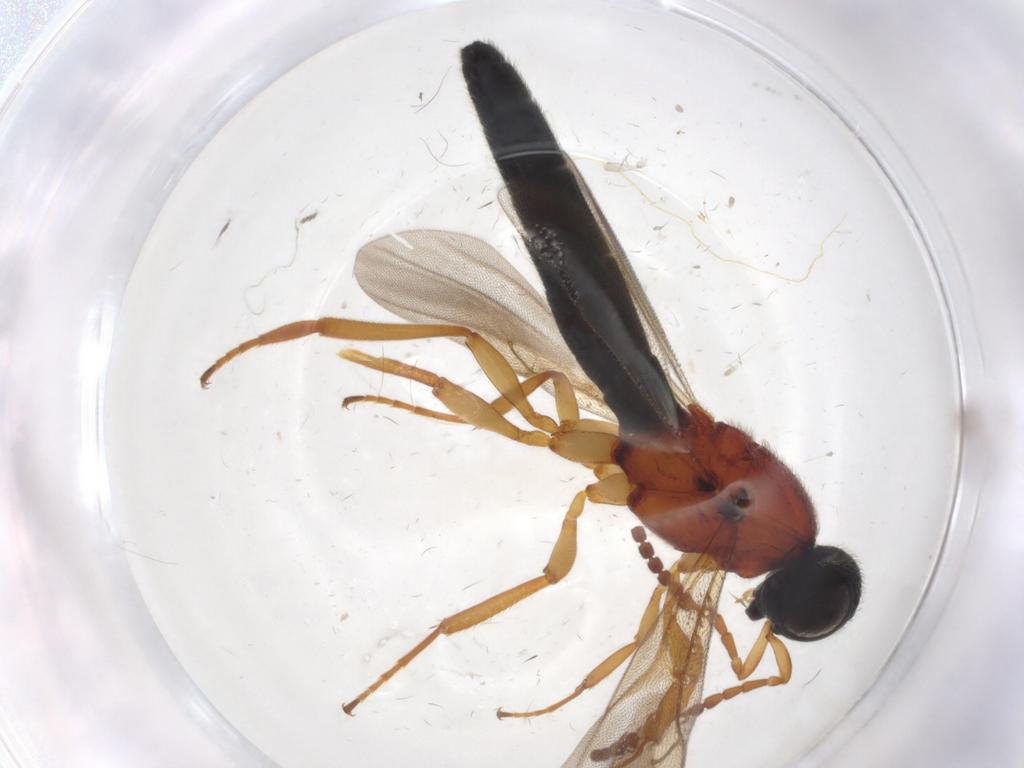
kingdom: Animalia
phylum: Arthropoda
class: Insecta
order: Hymenoptera
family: Scelionidae
